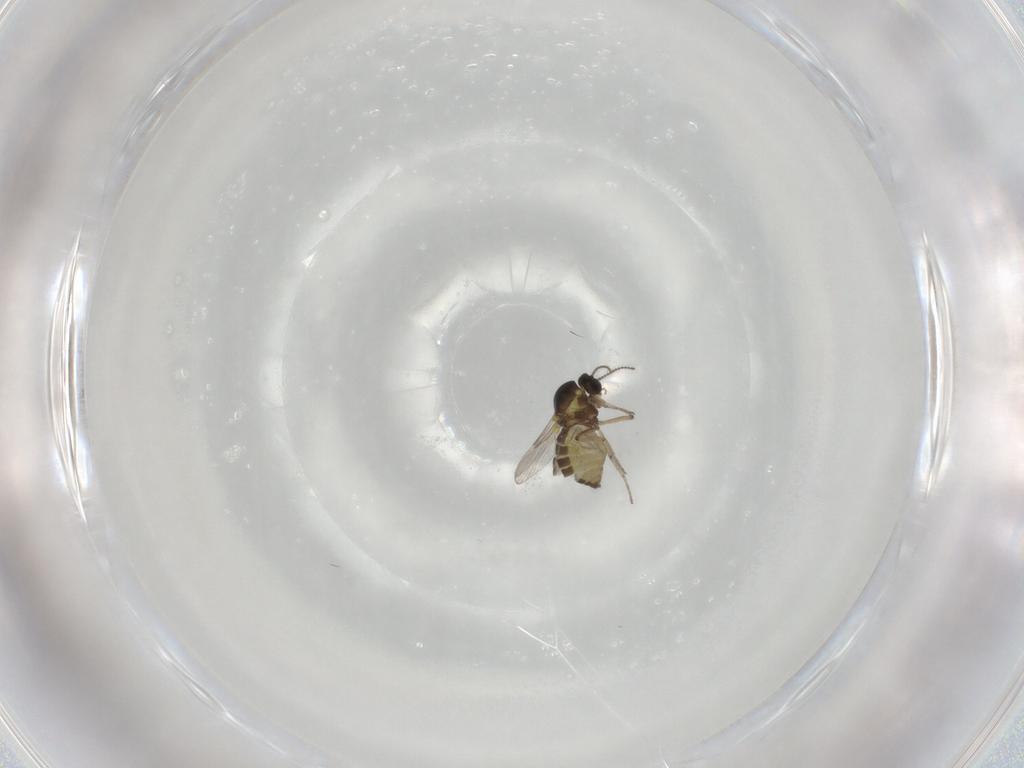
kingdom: Animalia
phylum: Arthropoda
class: Insecta
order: Diptera
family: Ceratopogonidae
